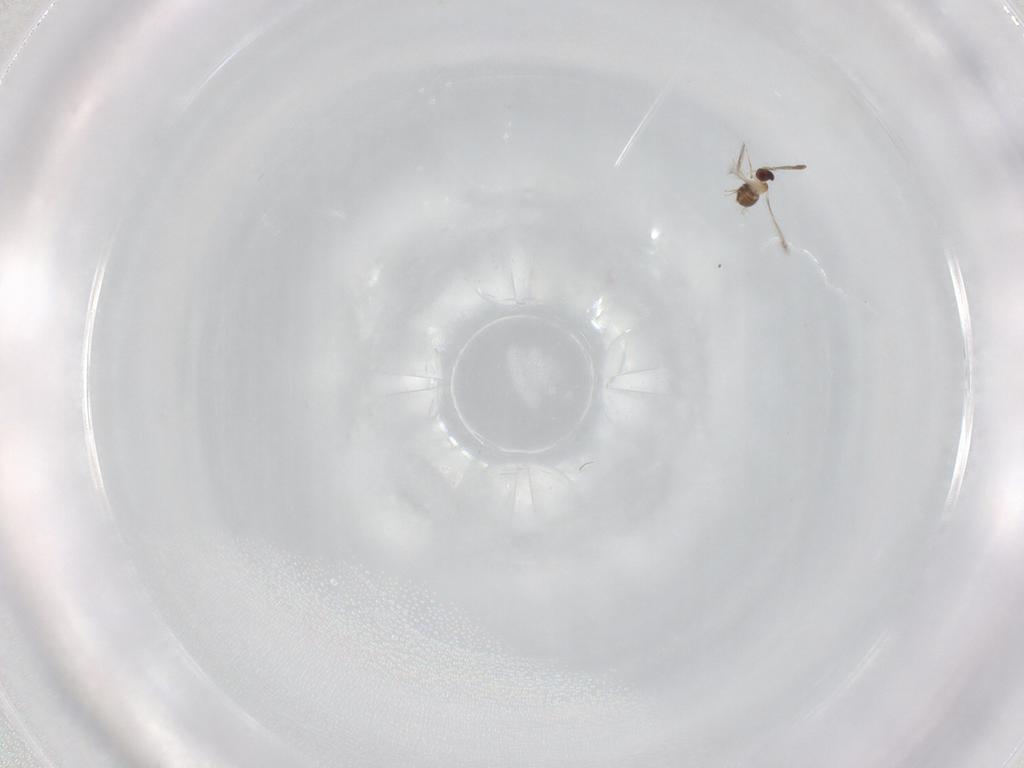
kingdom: Animalia
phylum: Arthropoda
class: Insecta
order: Hymenoptera
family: Mymaridae
